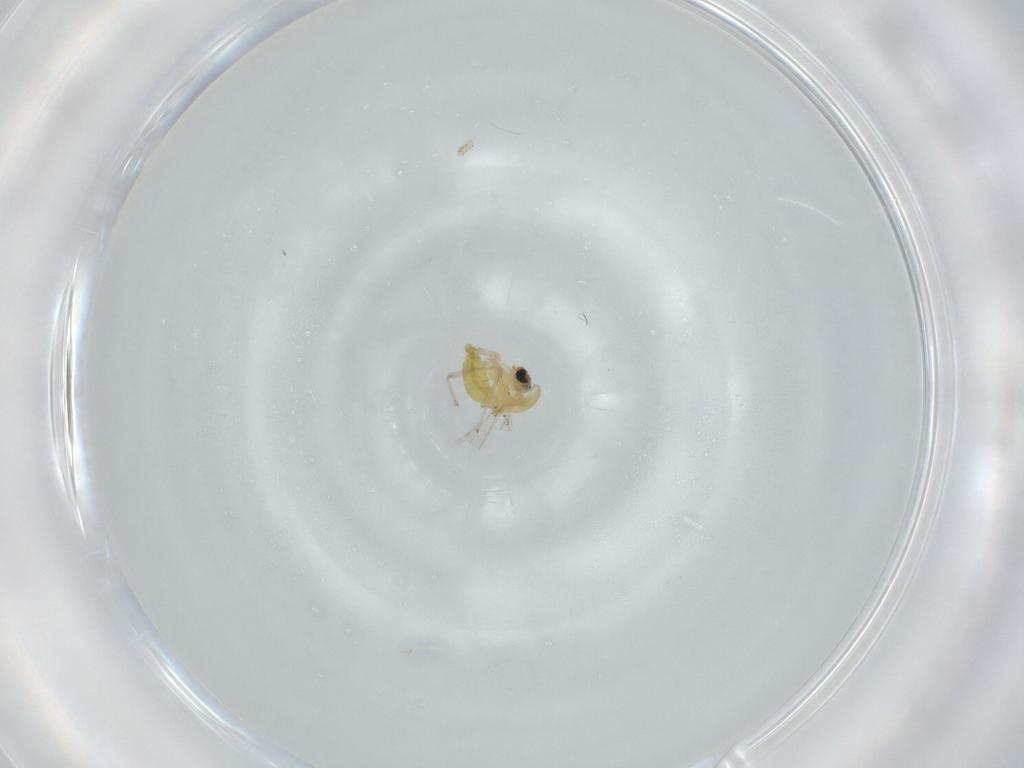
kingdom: Animalia
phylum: Arthropoda
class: Insecta
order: Diptera
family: Chironomidae
